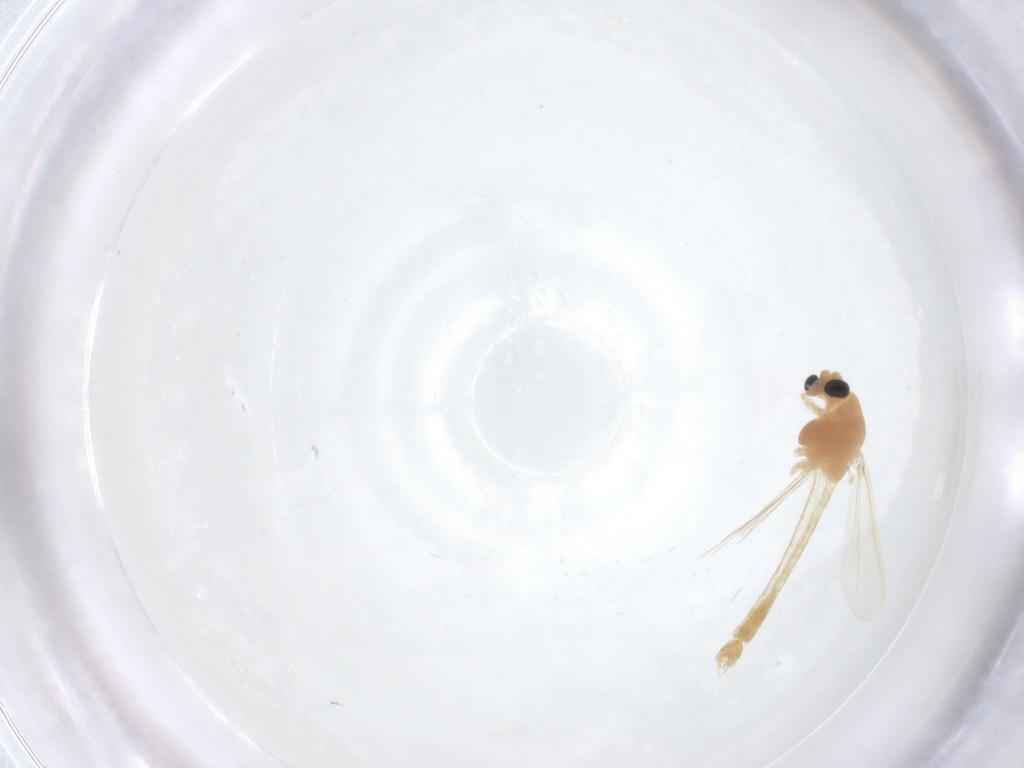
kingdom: Animalia
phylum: Arthropoda
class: Insecta
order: Diptera
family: Chironomidae
